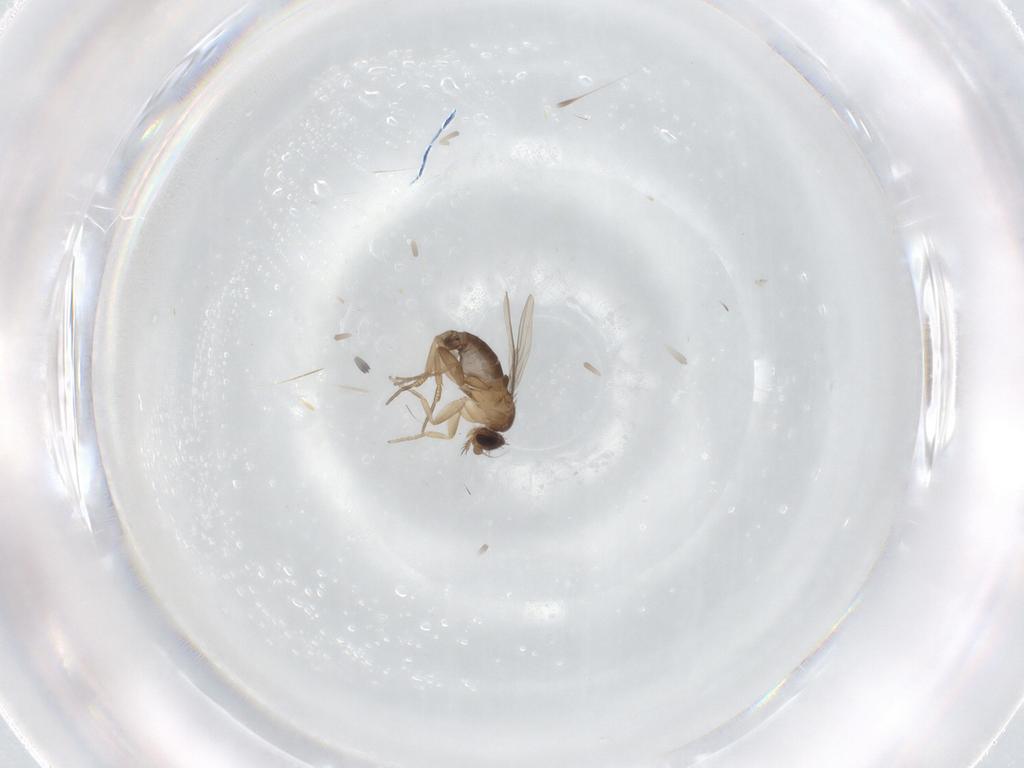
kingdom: Animalia
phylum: Arthropoda
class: Insecta
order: Diptera
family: Phoridae
